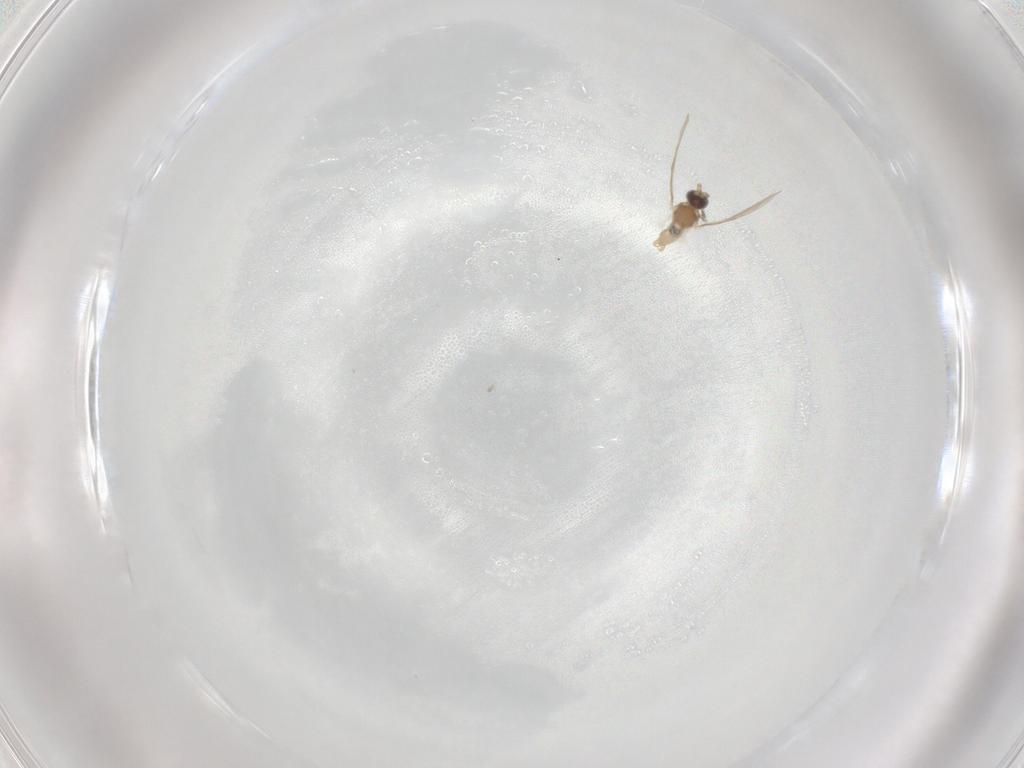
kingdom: Animalia
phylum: Arthropoda
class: Insecta
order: Diptera
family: Cecidomyiidae
